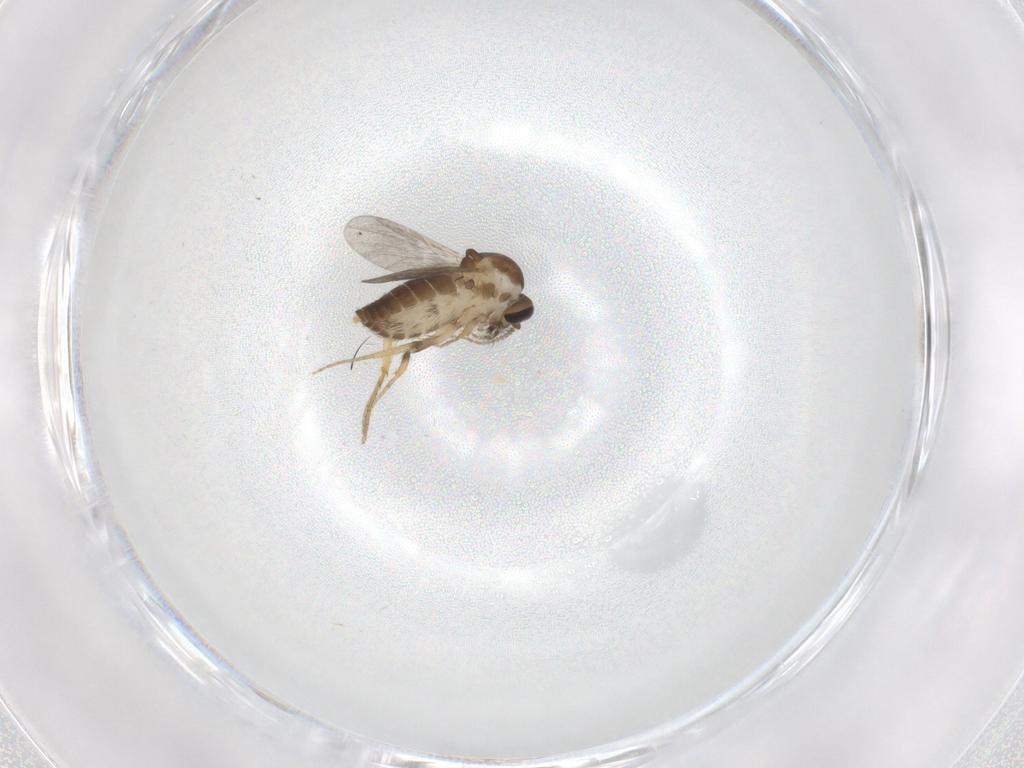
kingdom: Animalia
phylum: Arthropoda
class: Insecta
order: Diptera
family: Ceratopogonidae
